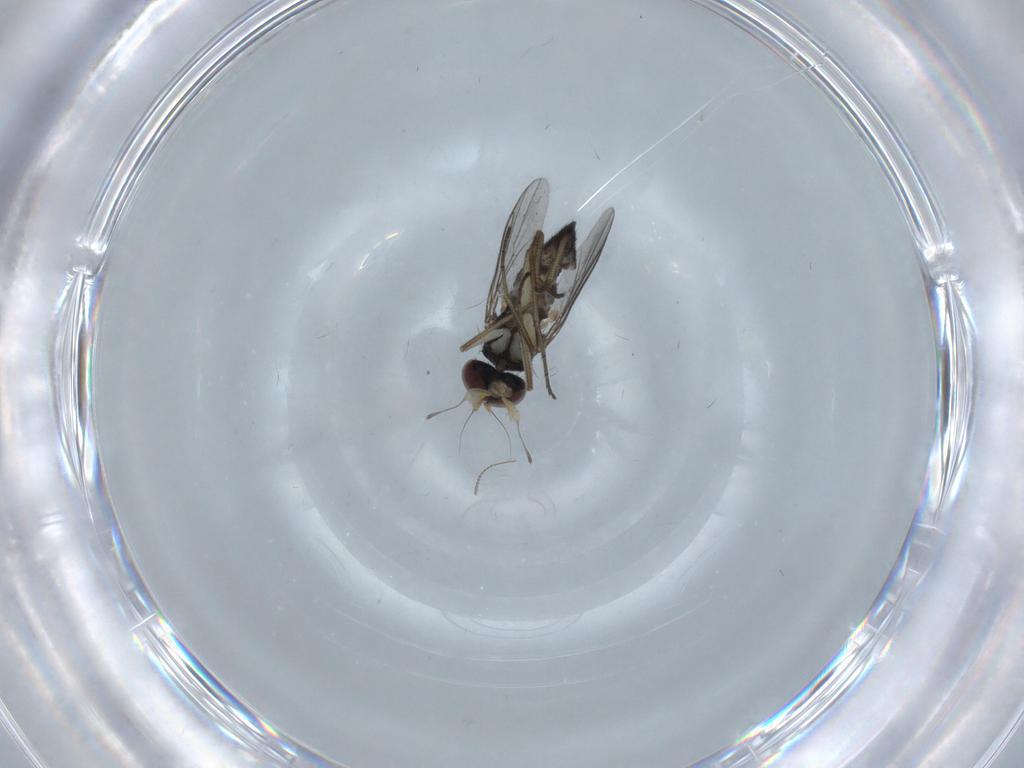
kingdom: Animalia
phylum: Arthropoda
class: Insecta
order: Diptera
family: Dolichopodidae
